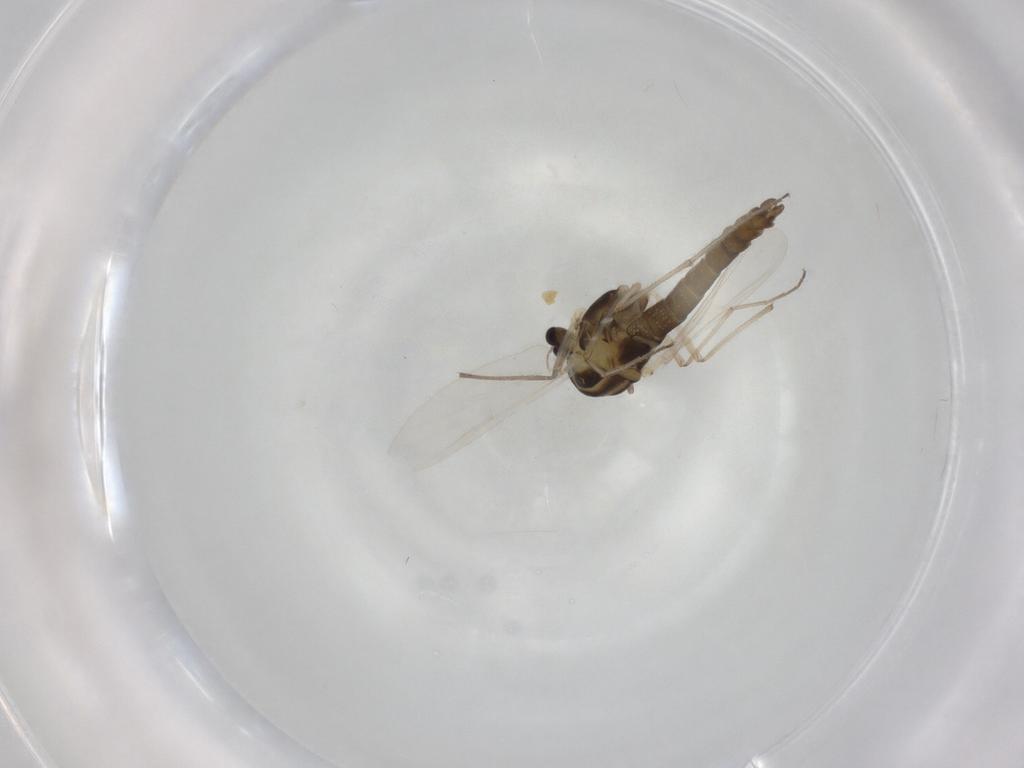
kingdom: Animalia
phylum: Arthropoda
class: Insecta
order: Diptera
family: Chironomidae
